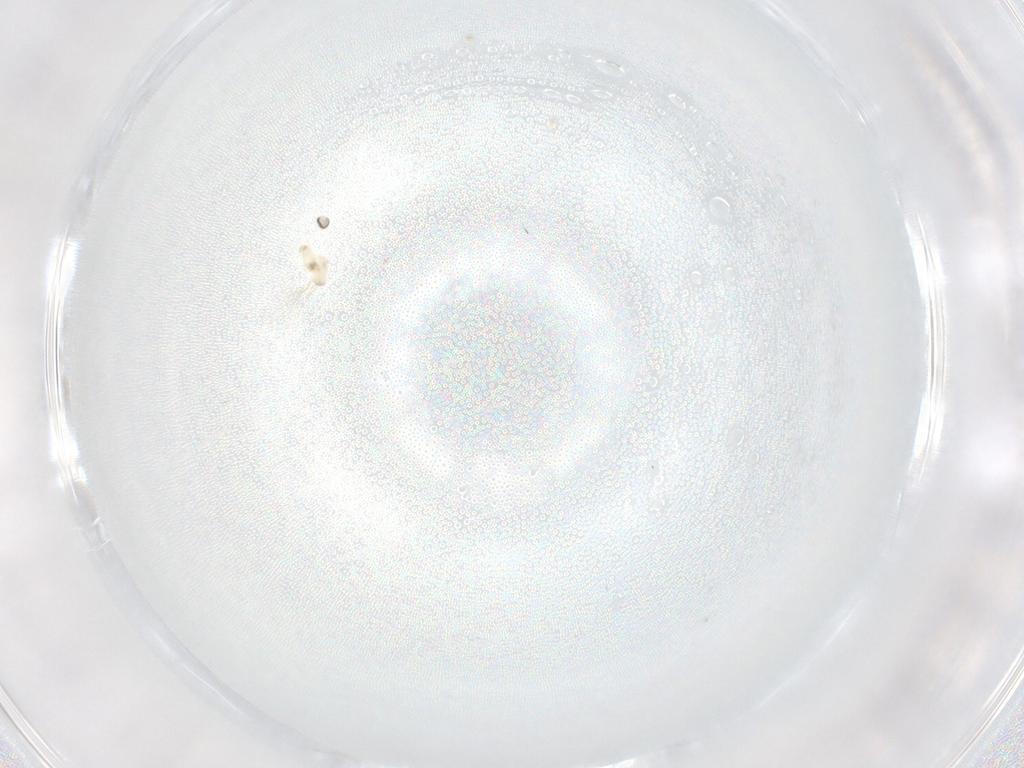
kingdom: Animalia
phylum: Arthropoda
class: Insecta
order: Diptera
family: Cecidomyiidae
